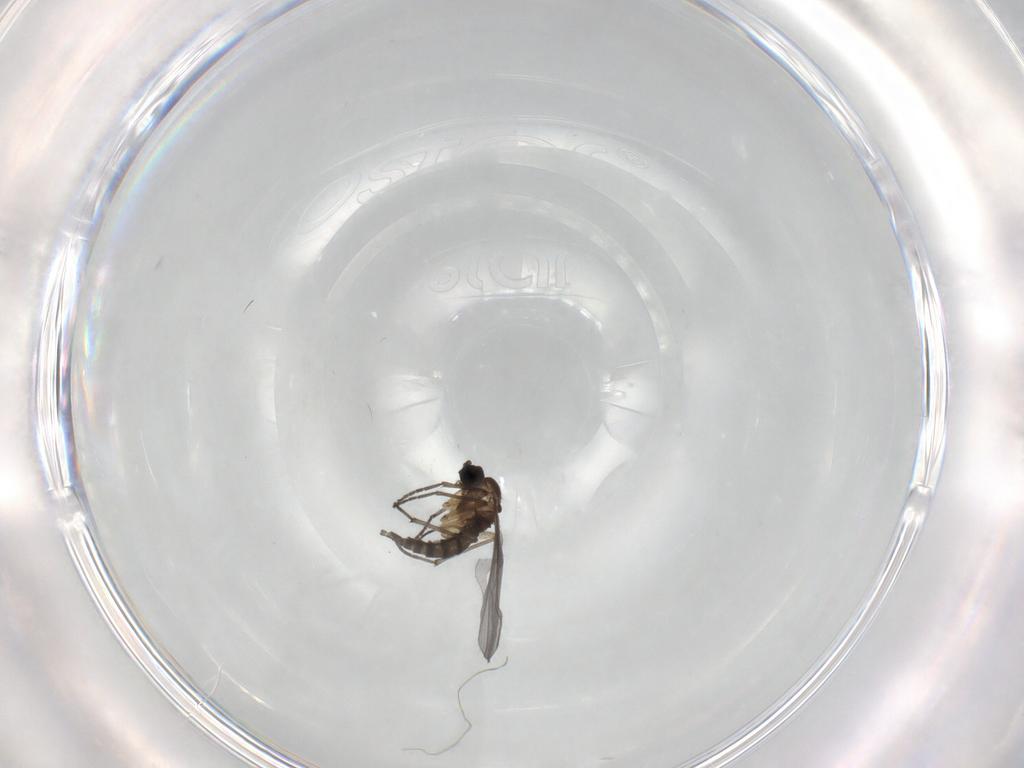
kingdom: Animalia
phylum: Arthropoda
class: Insecta
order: Diptera
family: Sciaridae
